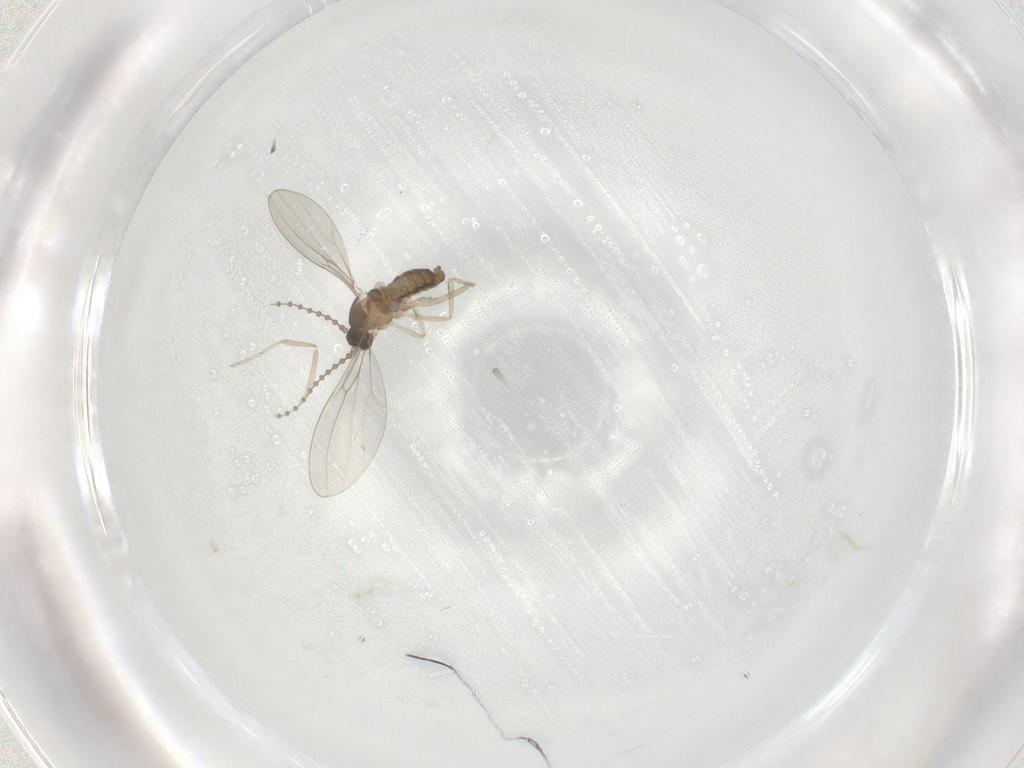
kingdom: Animalia
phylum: Arthropoda
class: Insecta
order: Diptera
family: Cecidomyiidae
